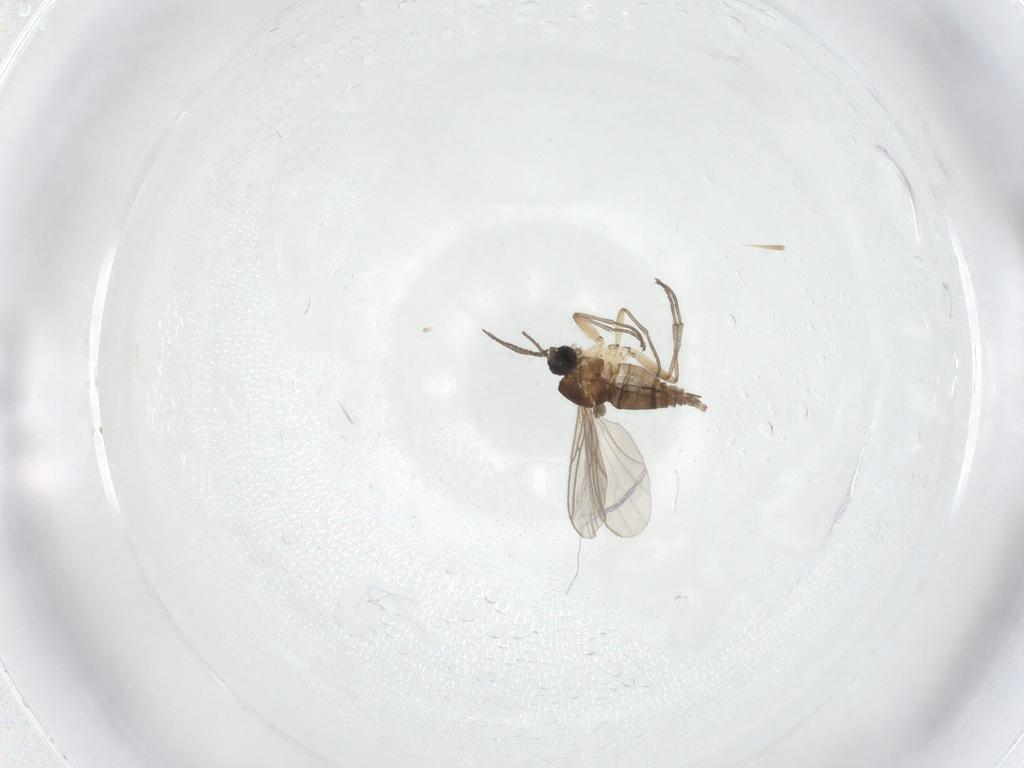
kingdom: Animalia
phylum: Arthropoda
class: Insecta
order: Diptera
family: Sciaridae
